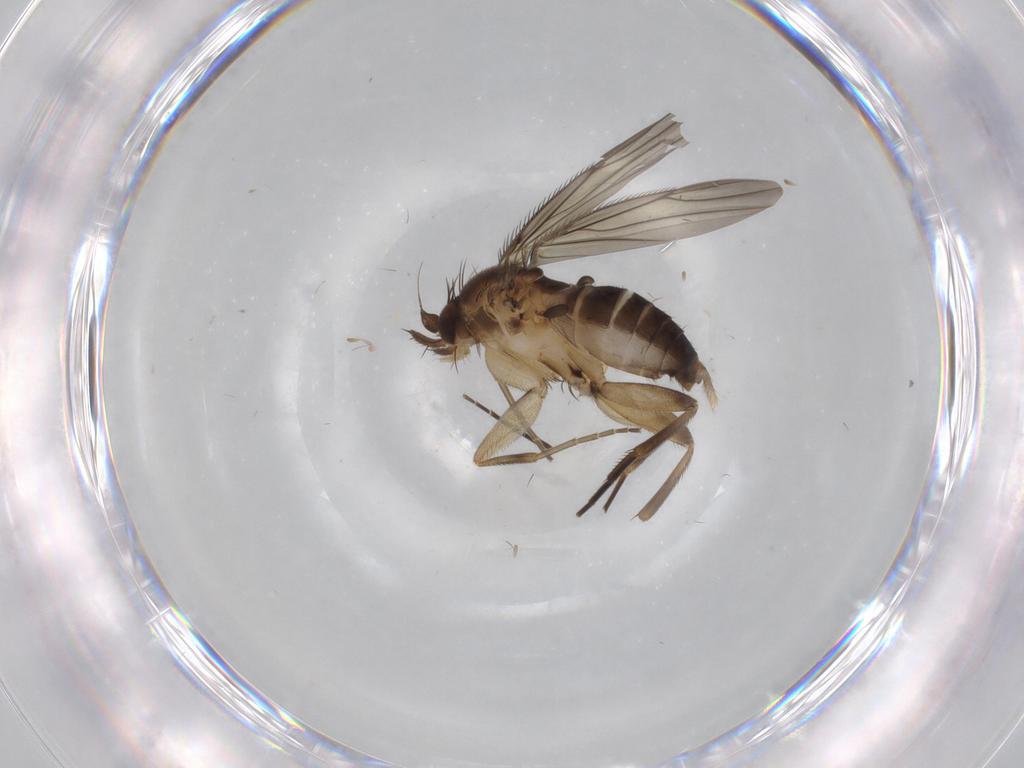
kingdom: Animalia
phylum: Arthropoda
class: Insecta
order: Diptera
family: Phoridae
